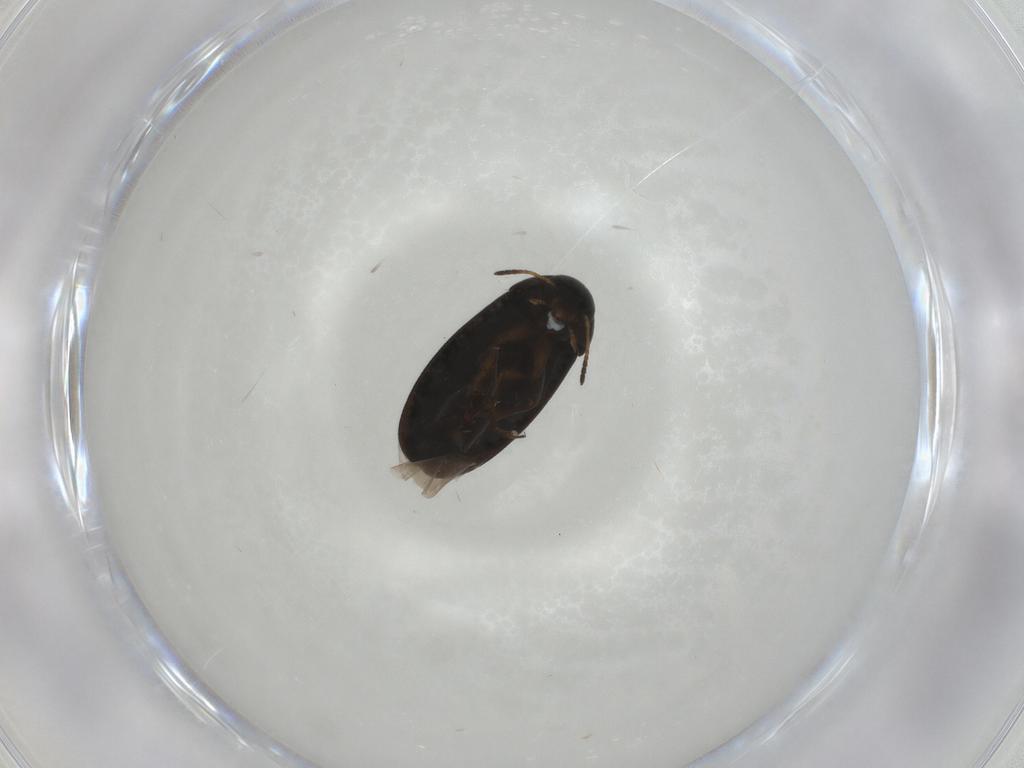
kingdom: Animalia
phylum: Arthropoda
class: Insecta
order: Coleoptera
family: Scraptiidae
